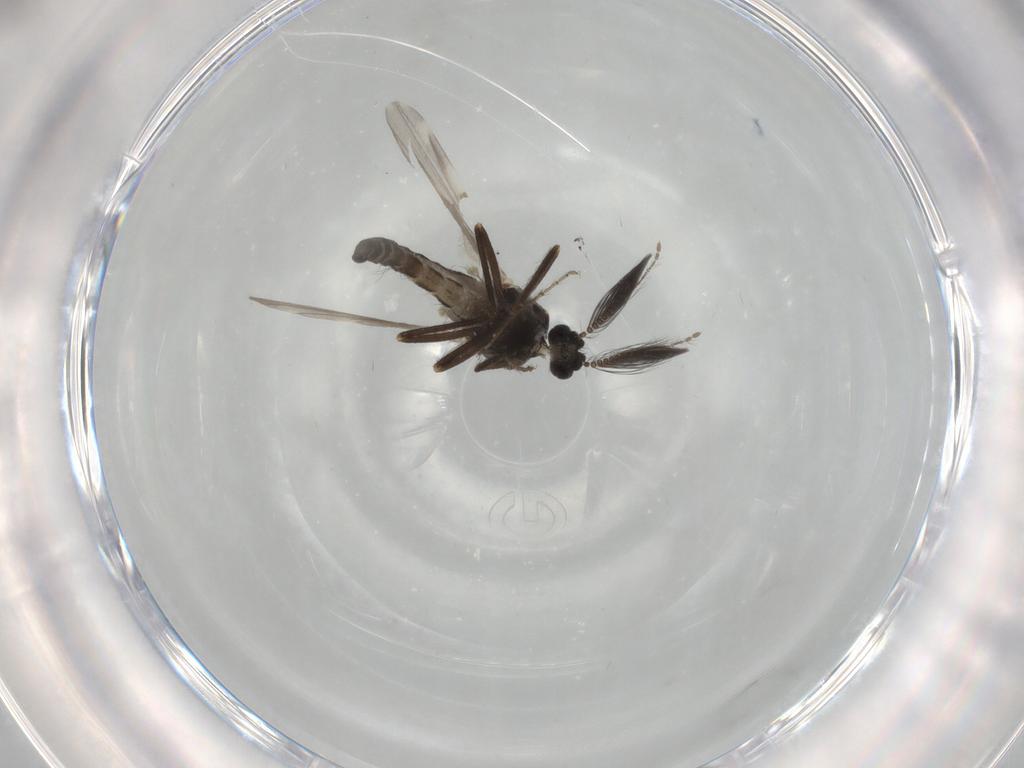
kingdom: Animalia
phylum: Arthropoda
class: Insecta
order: Diptera
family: Ceratopogonidae
